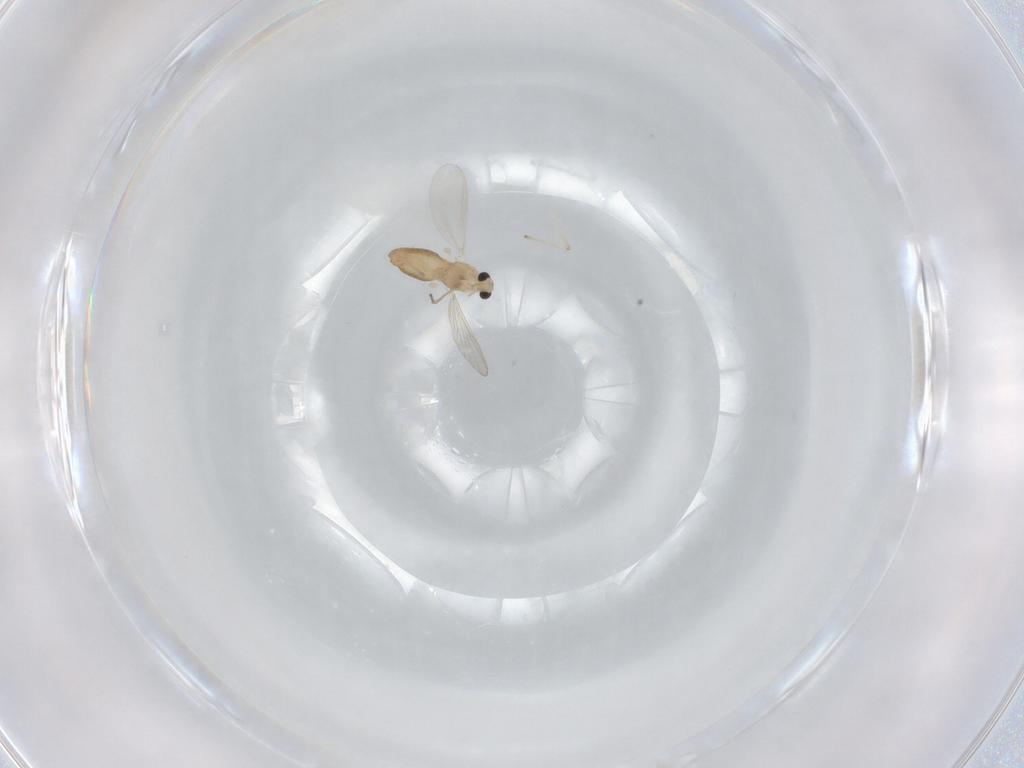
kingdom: Animalia
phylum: Arthropoda
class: Insecta
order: Diptera
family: Chironomidae
